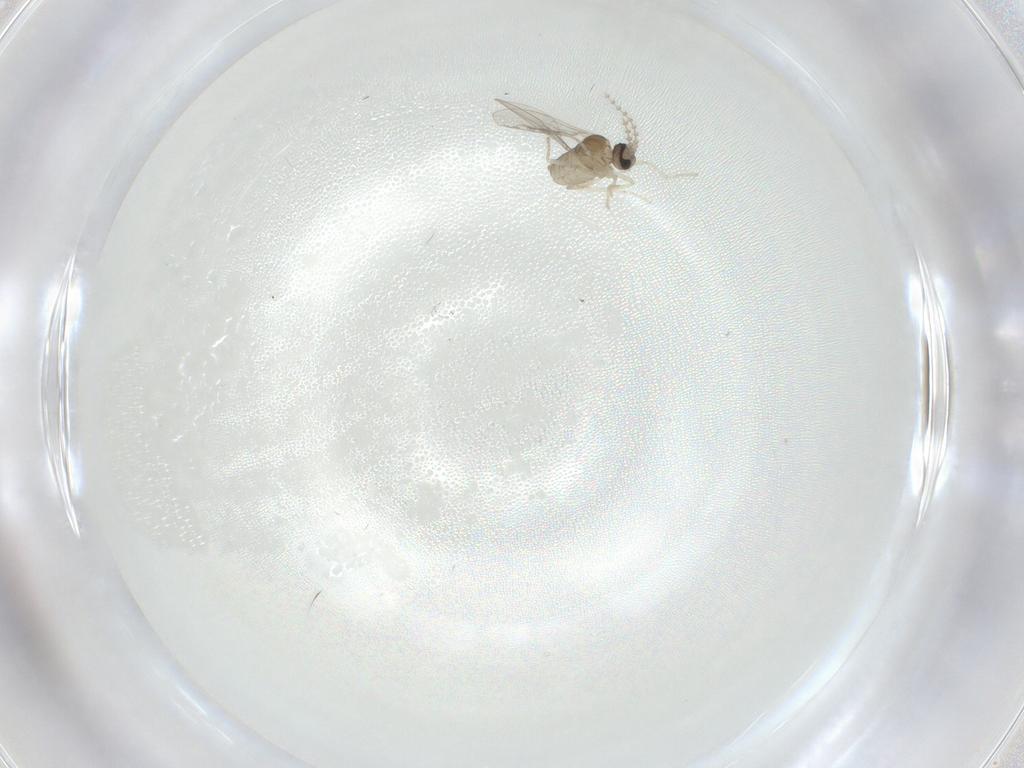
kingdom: Animalia
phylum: Arthropoda
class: Insecta
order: Diptera
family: Cecidomyiidae
